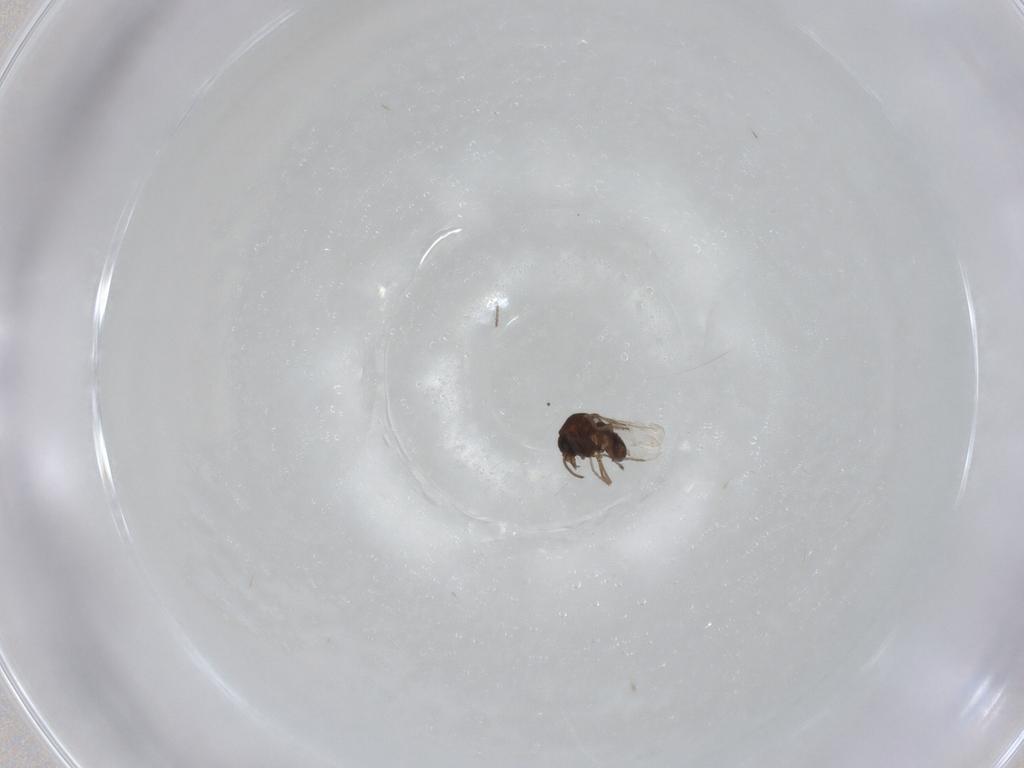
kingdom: Animalia
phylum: Arthropoda
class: Insecta
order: Diptera
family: Ceratopogonidae
